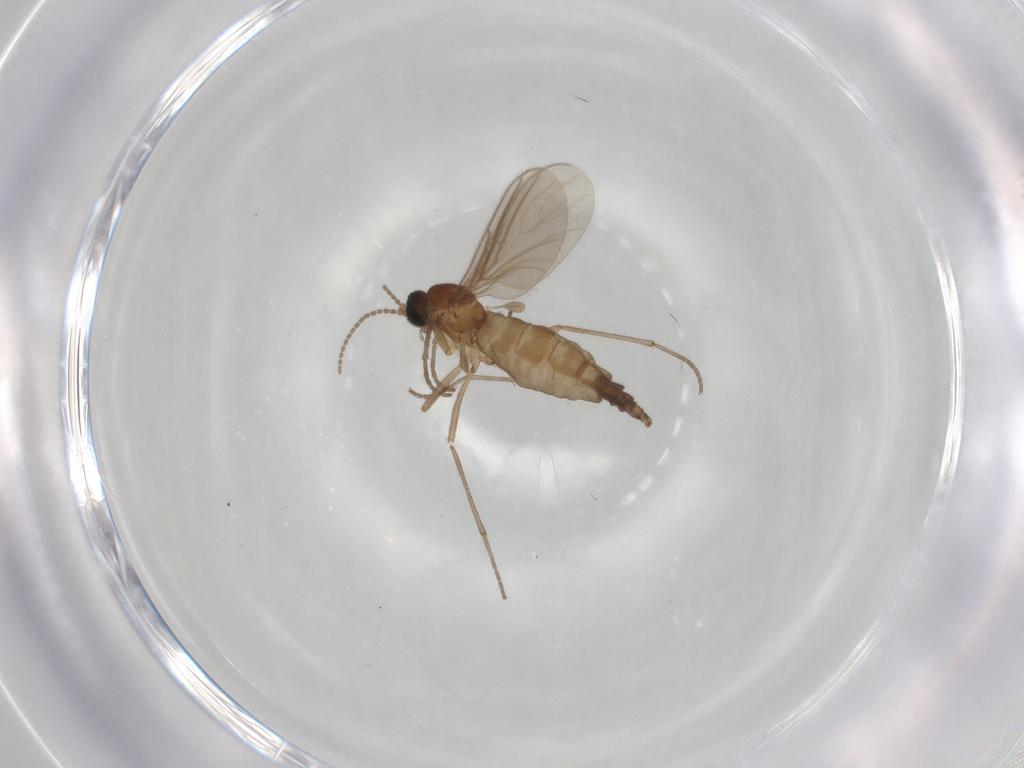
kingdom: Animalia
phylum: Arthropoda
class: Insecta
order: Diptera
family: Sciaridae
